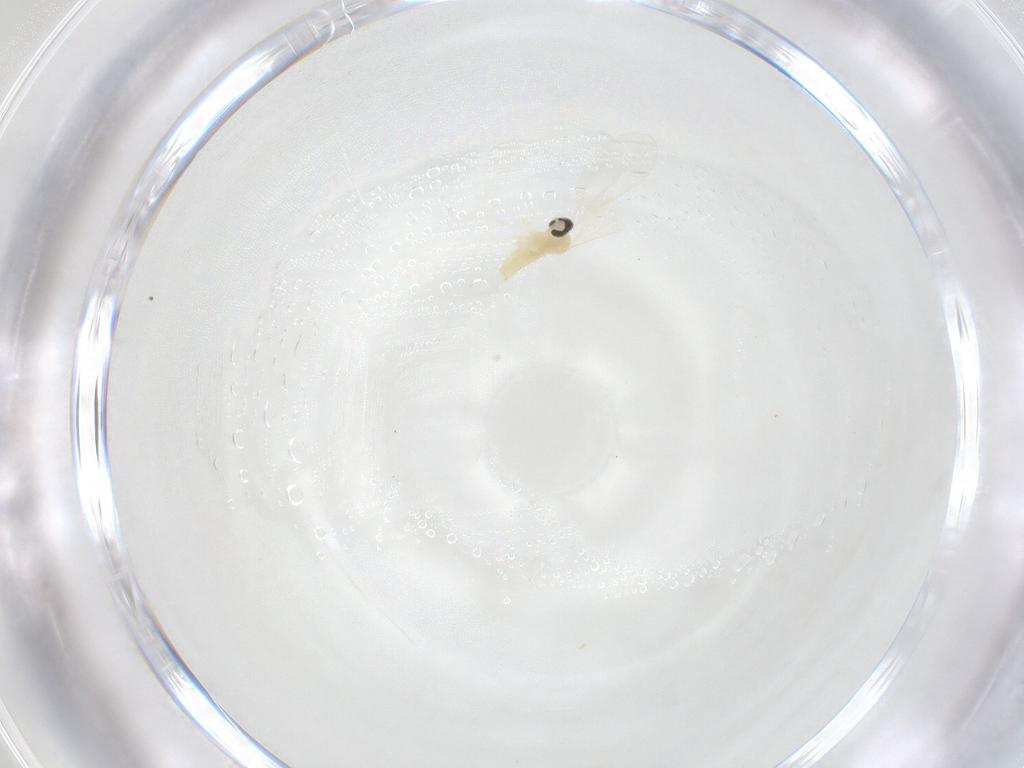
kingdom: Animalia
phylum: Arthropoda
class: Insecta
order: Diptera
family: Cecidomyiidae
